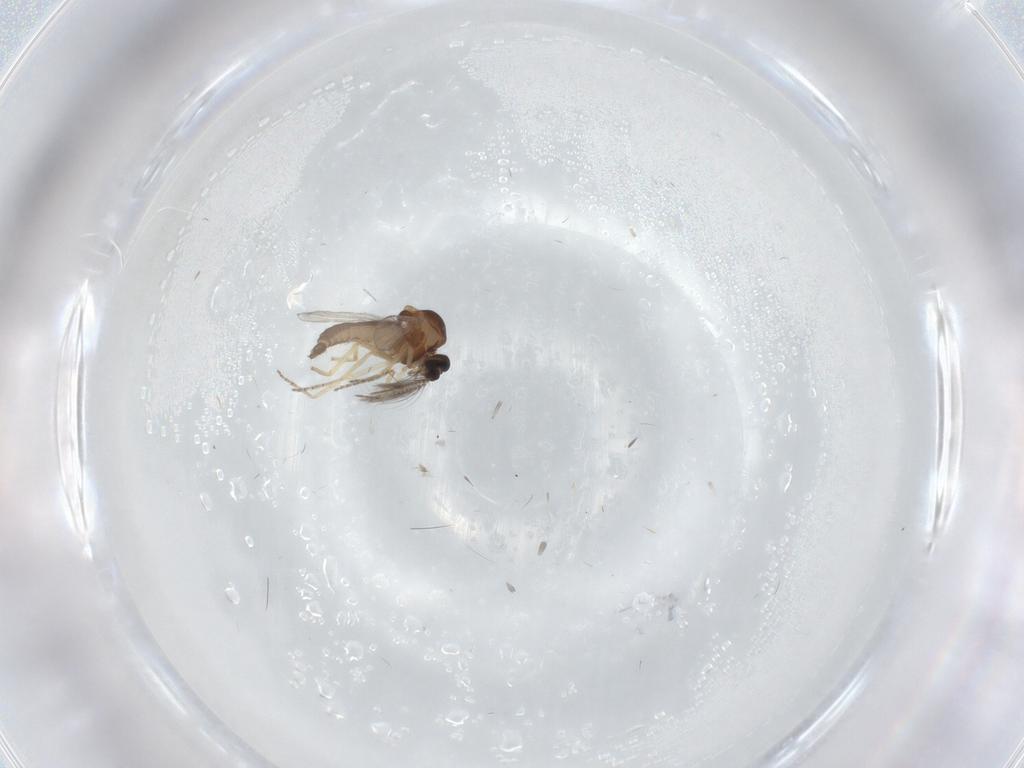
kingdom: Animalia
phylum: Arthropoda
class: Insecta
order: Diptera
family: Ceratopogonidae
